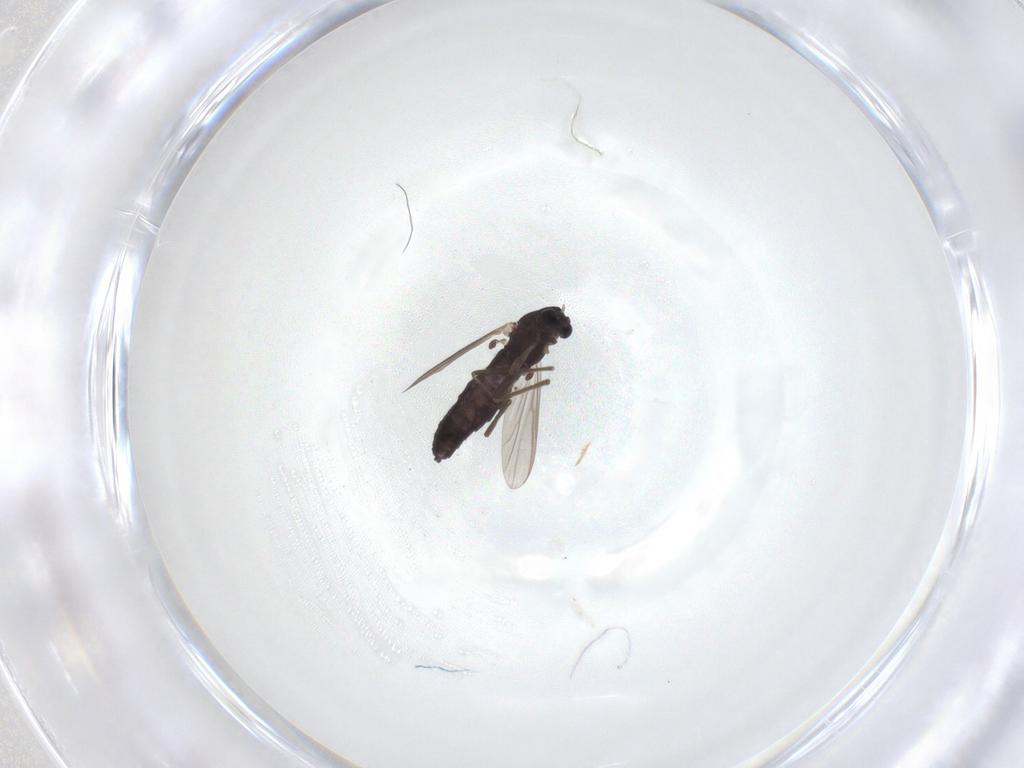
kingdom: Animalia
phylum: Arthropoda
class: Insecta
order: Diptera
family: Chironomidae
